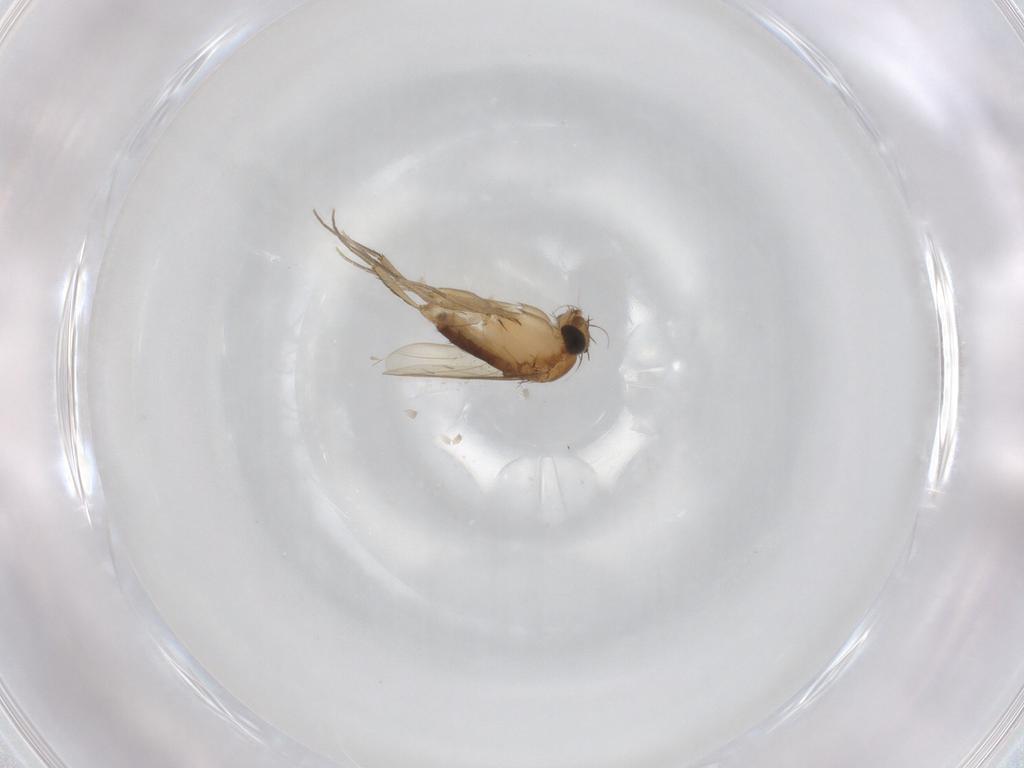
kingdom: Animalia
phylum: Arthropoda
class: Insecta
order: Diptera
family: Phoridae
